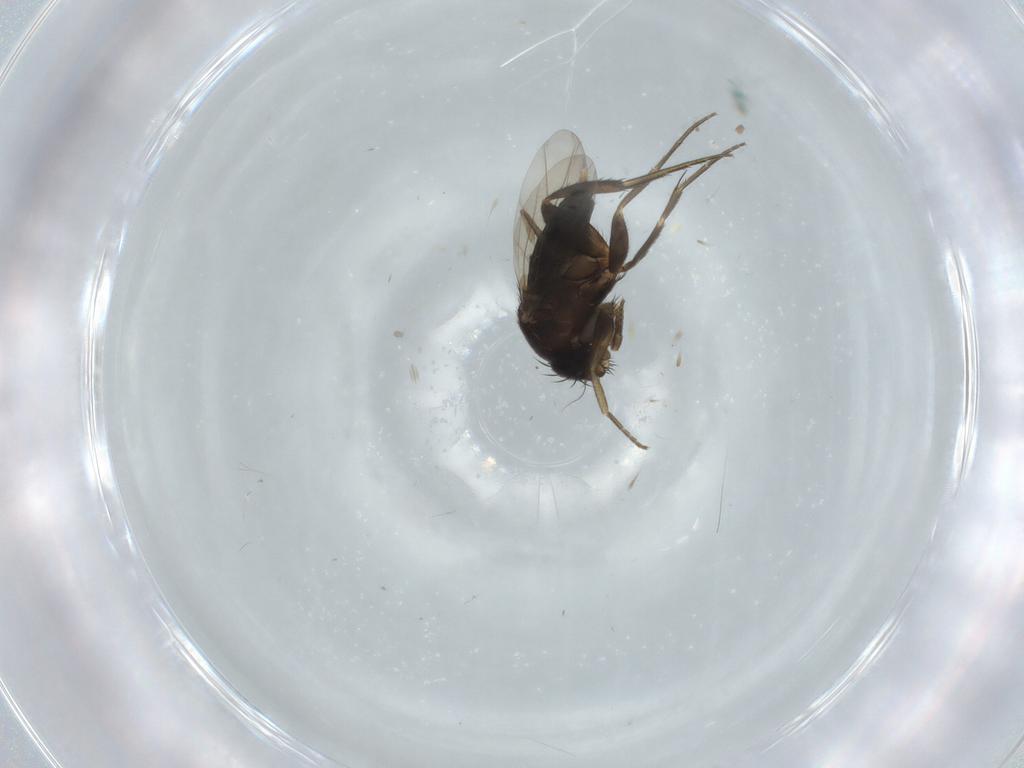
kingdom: Animalia
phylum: Arthropoda
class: Insecta
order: Diptera
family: Phoridae
